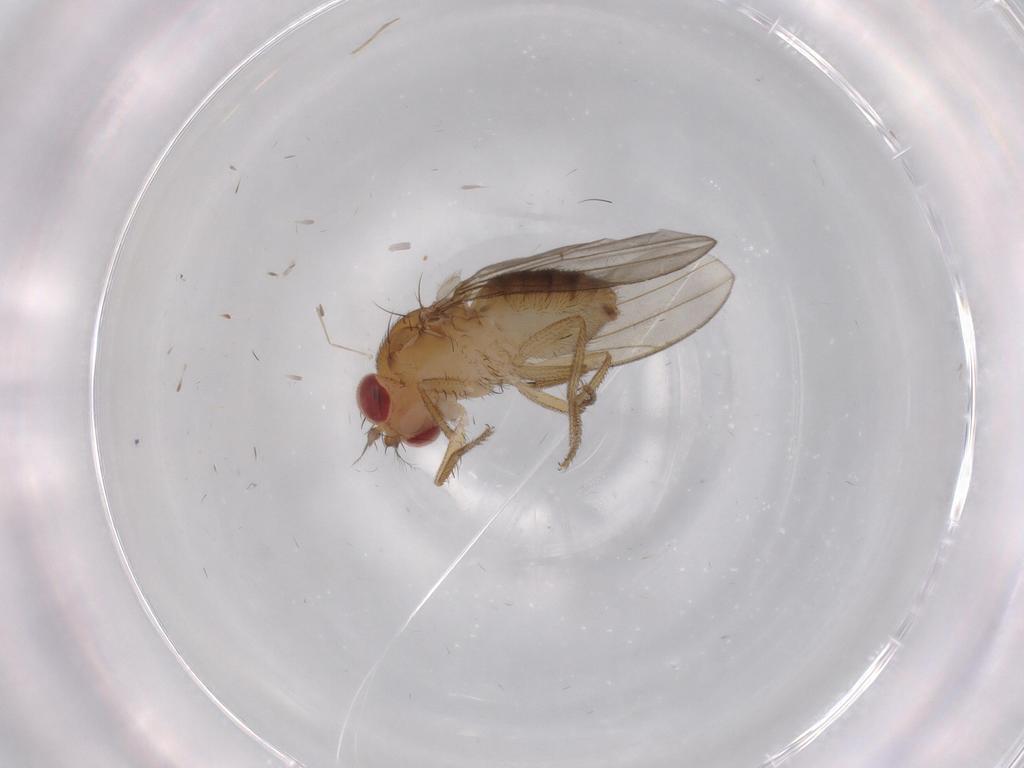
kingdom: Animalia
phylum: Arthropoda
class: Insecta
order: Diptera
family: Drosophilidae
